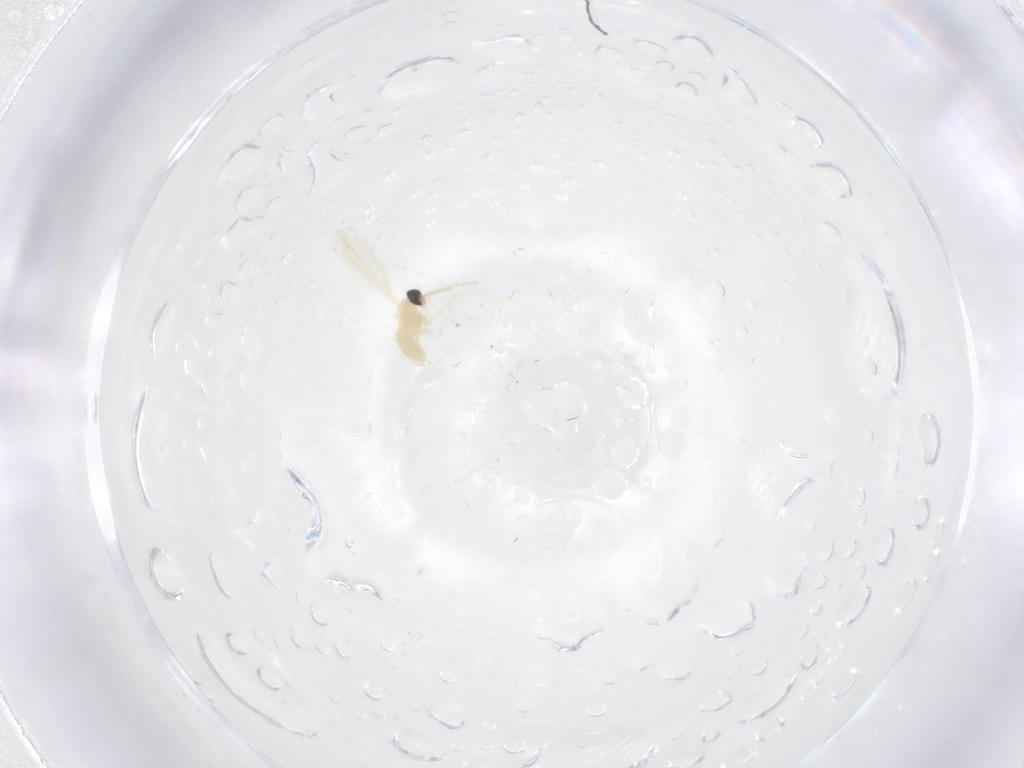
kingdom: Animalia
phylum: Arthropoda
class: Insecta
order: Diptera
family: Cecidomyiidae
